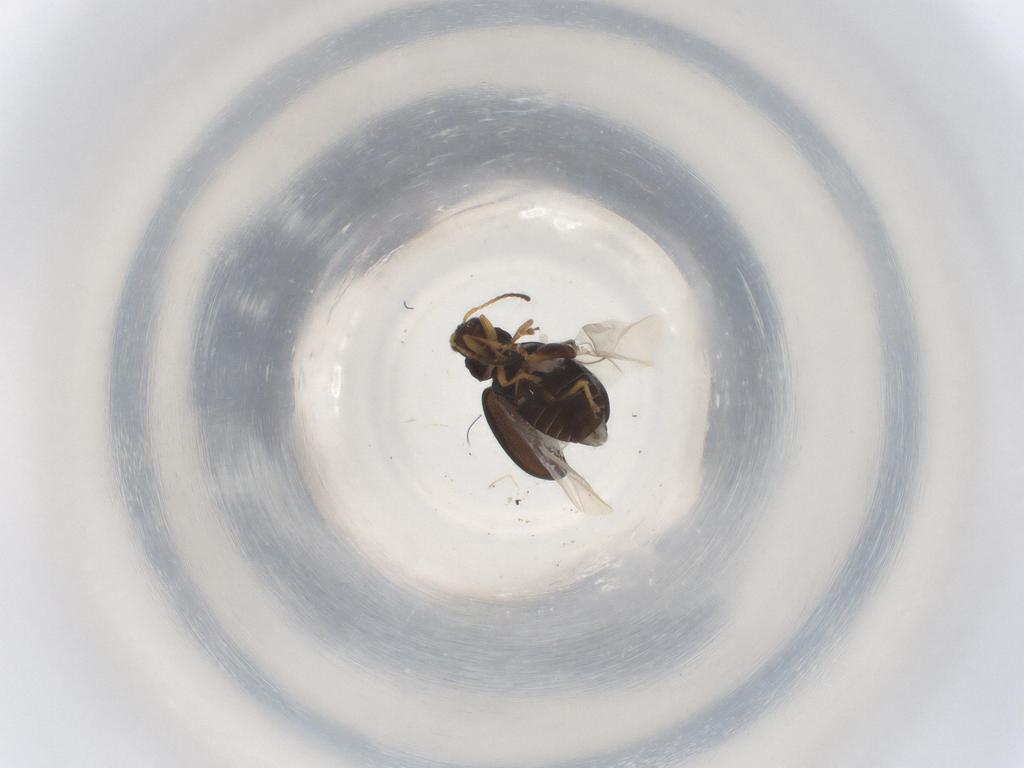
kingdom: Animalia
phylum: Arthropoda
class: Insecta
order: Coleoptera
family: Chrysomelidae
